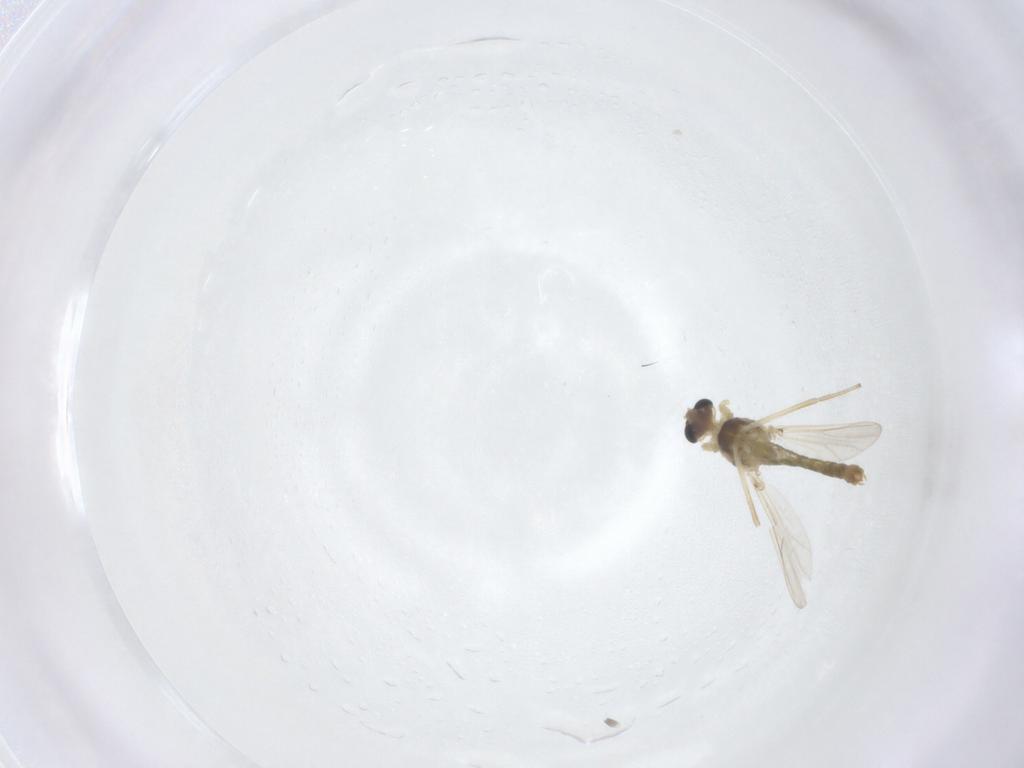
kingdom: Animalia
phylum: Arthropoda
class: Insecta
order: Diptera
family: Chironomidae
